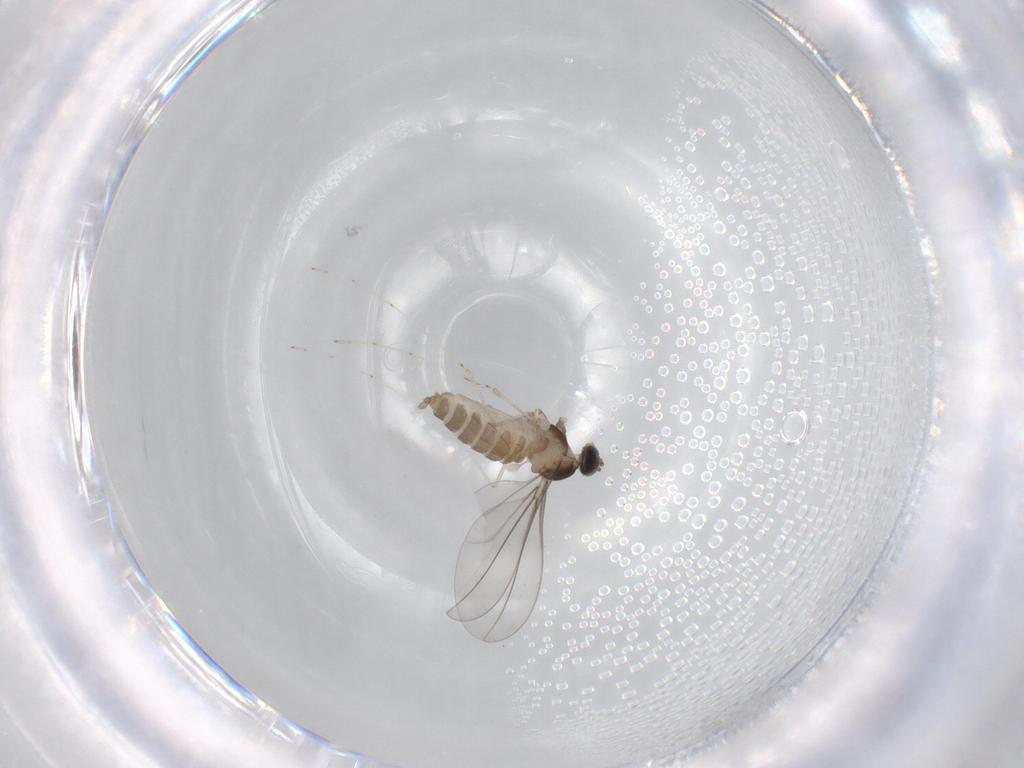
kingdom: Animalia
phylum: Arthropoda
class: Insecta
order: Diptera
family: Cecidomyiidae
